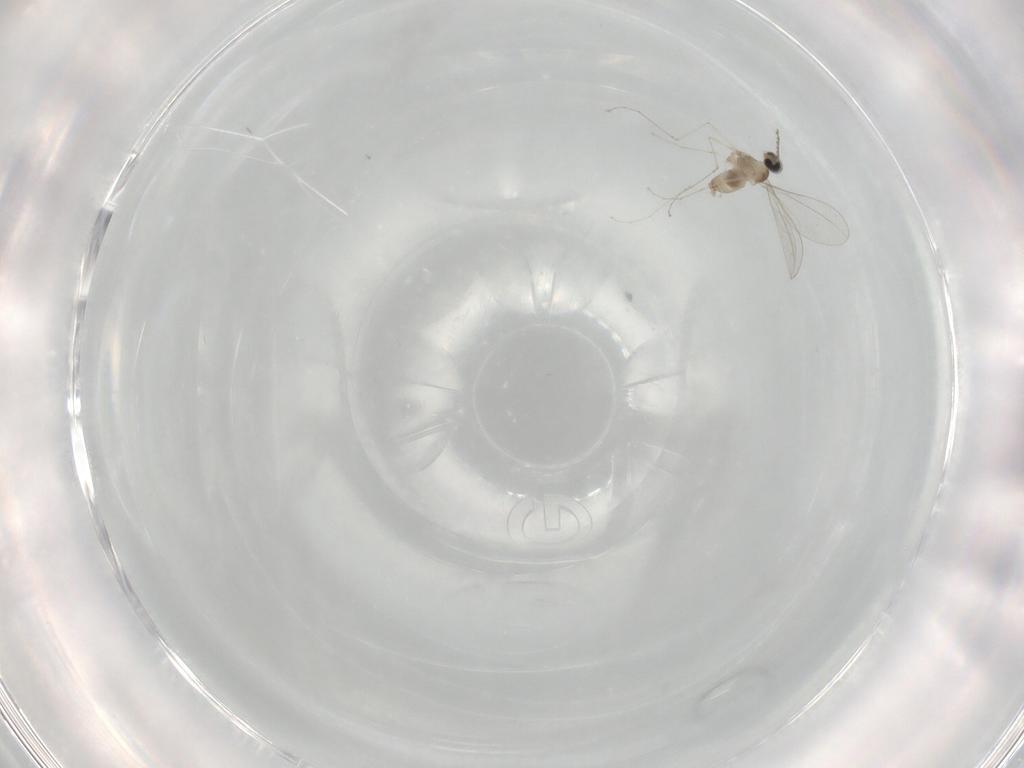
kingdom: Animalia
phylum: Arthropoda
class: Insecta
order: Diptera
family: Cecidomyiidae
